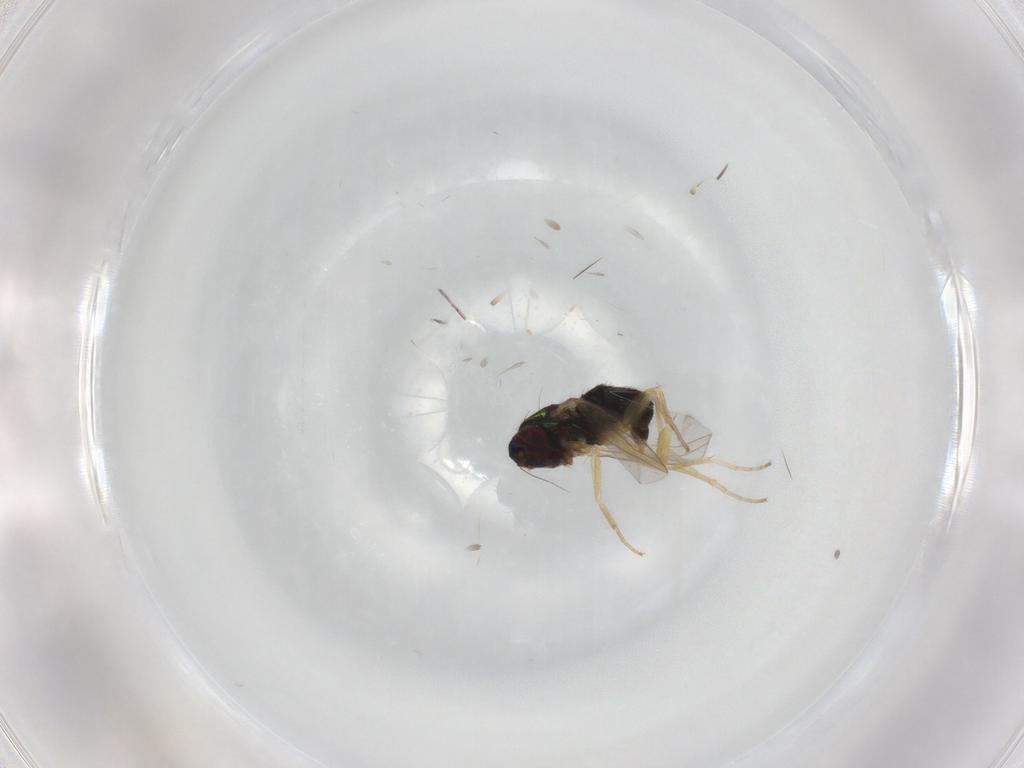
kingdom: Animalia
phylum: Arthropoda
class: Insecta
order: Diptera
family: Dolichopodidae
